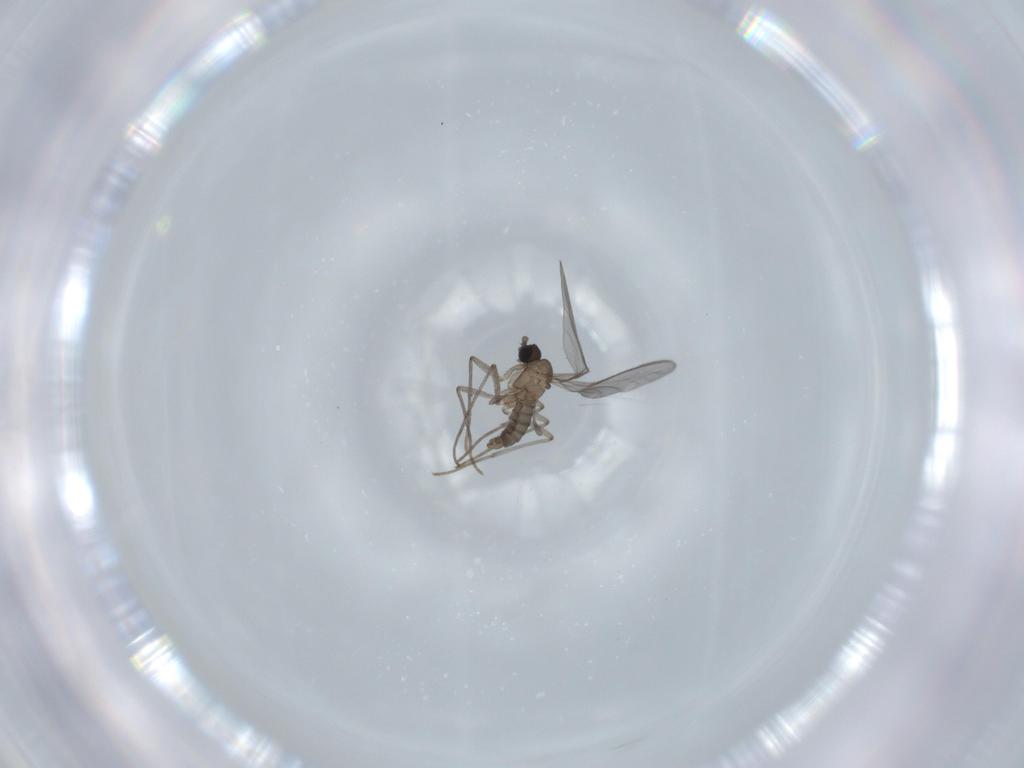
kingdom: Animalia
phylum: Arthropoda
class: Insecta
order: Diptera
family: Sciaridae
